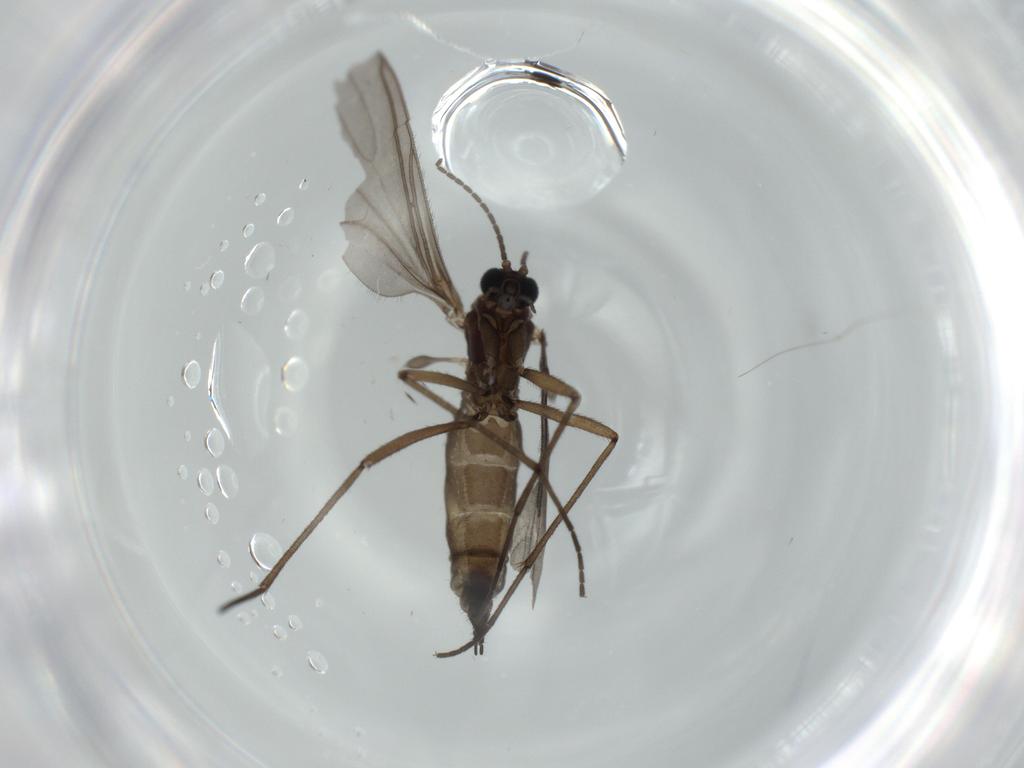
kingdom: Animalia
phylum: Arthropoda
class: Insecta
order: Diptera
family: Sciaridae
